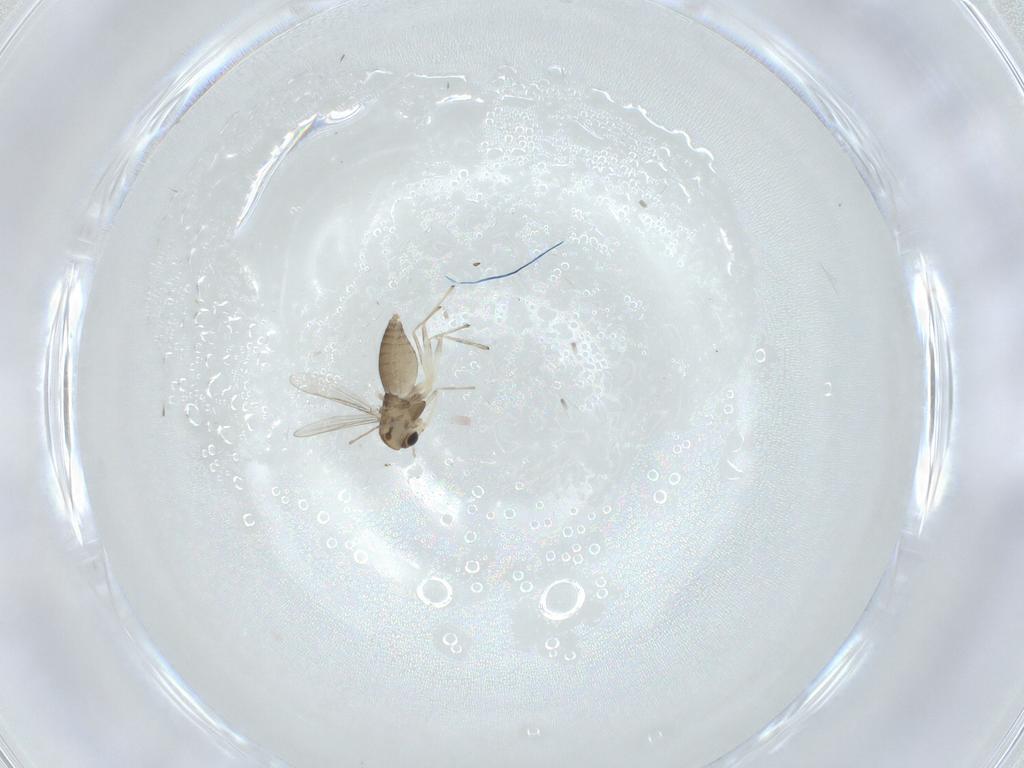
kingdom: Animalia
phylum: Arthropoda
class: Insecta
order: Diptera
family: Chironomidae
